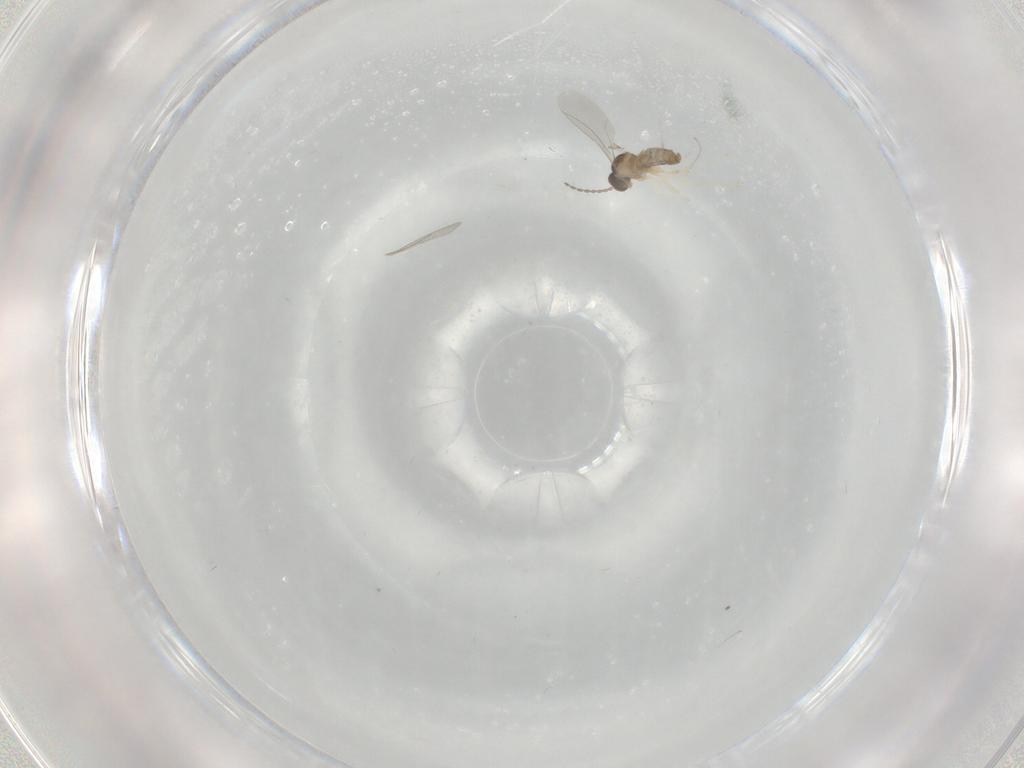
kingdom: Animalia
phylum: Arthropoda
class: Insecta
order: Diptera
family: Cecidomyiidae
